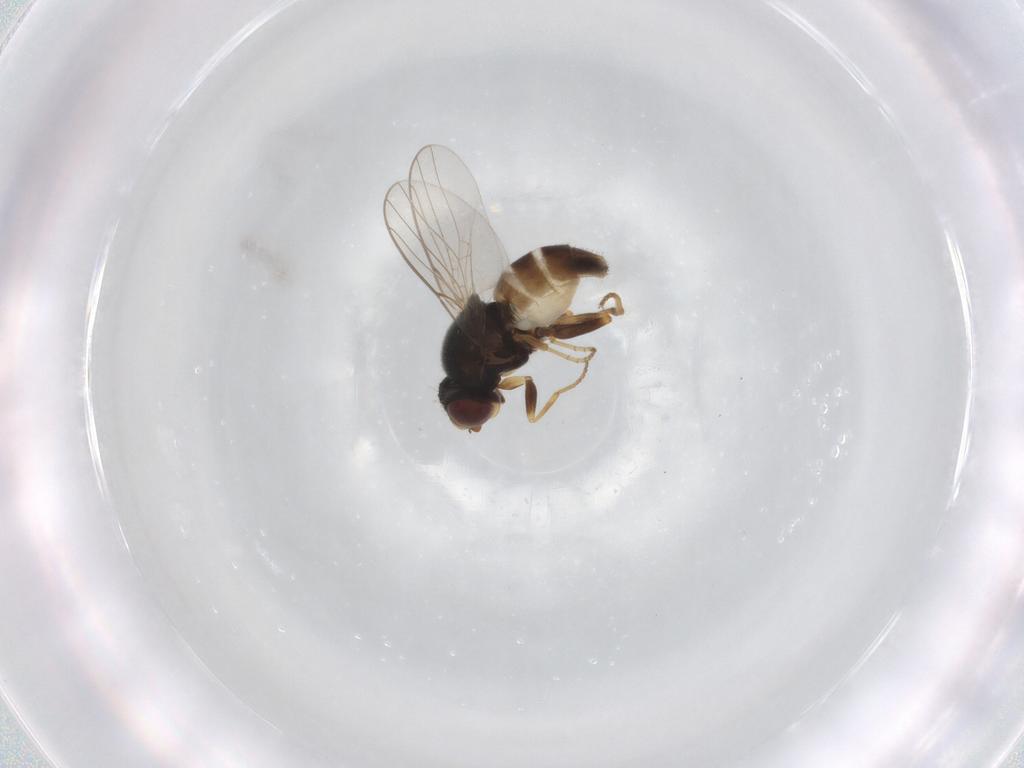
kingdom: Animalia
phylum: Arthropoda
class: Insecta
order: Diptera
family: Chloropidae
